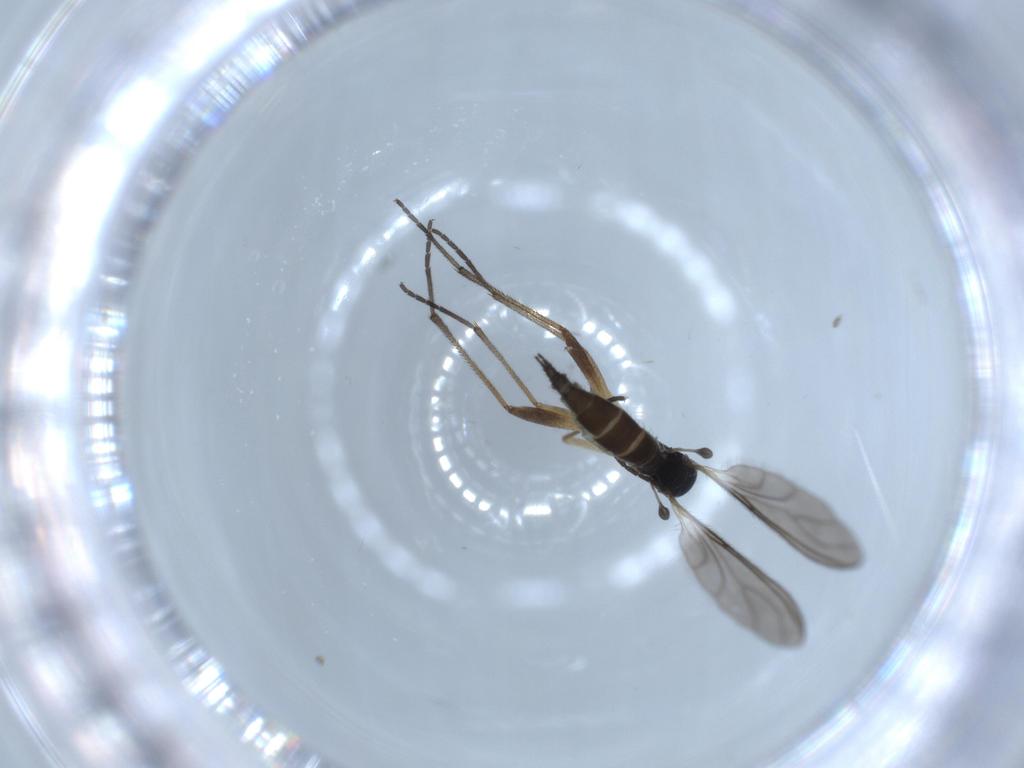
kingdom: Animalia
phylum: Arthropoda
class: Insecta
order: Diptera
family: Sciaridae
